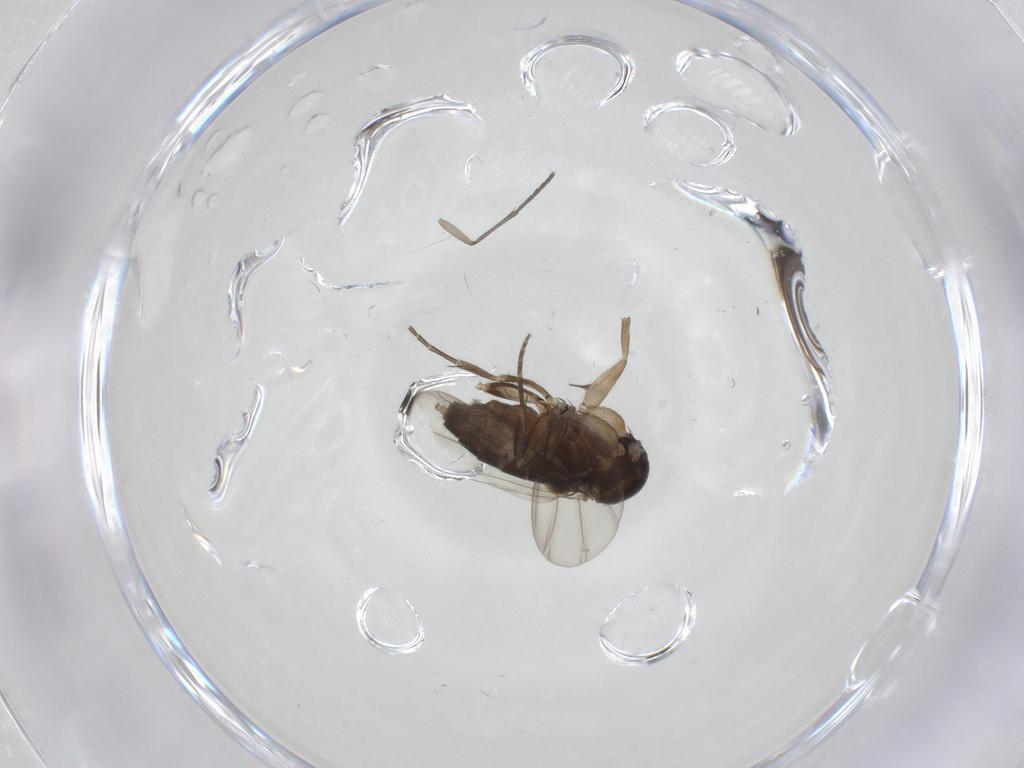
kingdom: Animalia
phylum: Arthropoda
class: Insecta
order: Diptera
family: Phoridae
